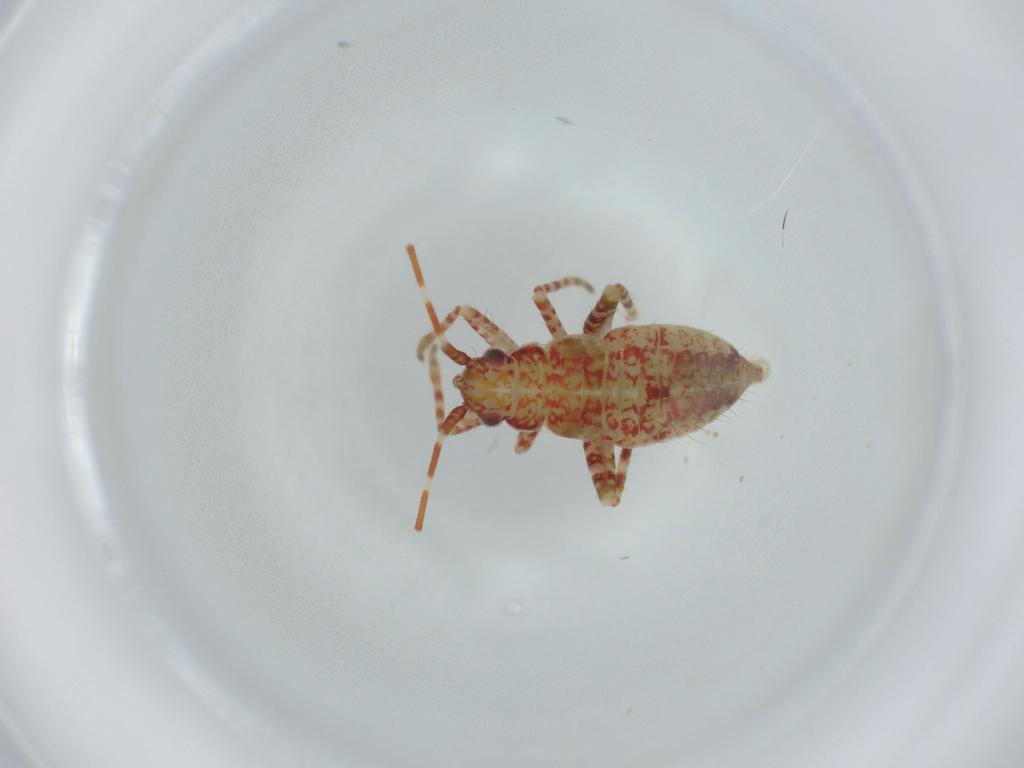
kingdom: Animalia
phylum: Arthropoda
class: Insecta
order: Hemiptera
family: Miridae
